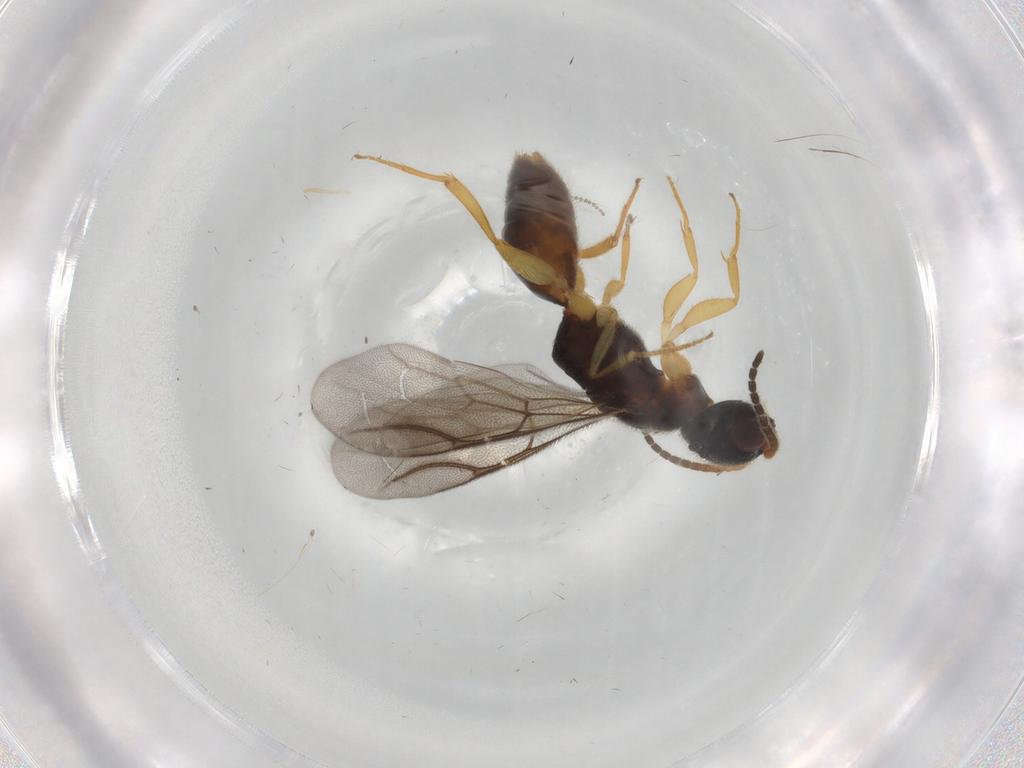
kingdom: Animalia
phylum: Arthropoda
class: Insecta
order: Hymenoptera
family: Bethylidae
